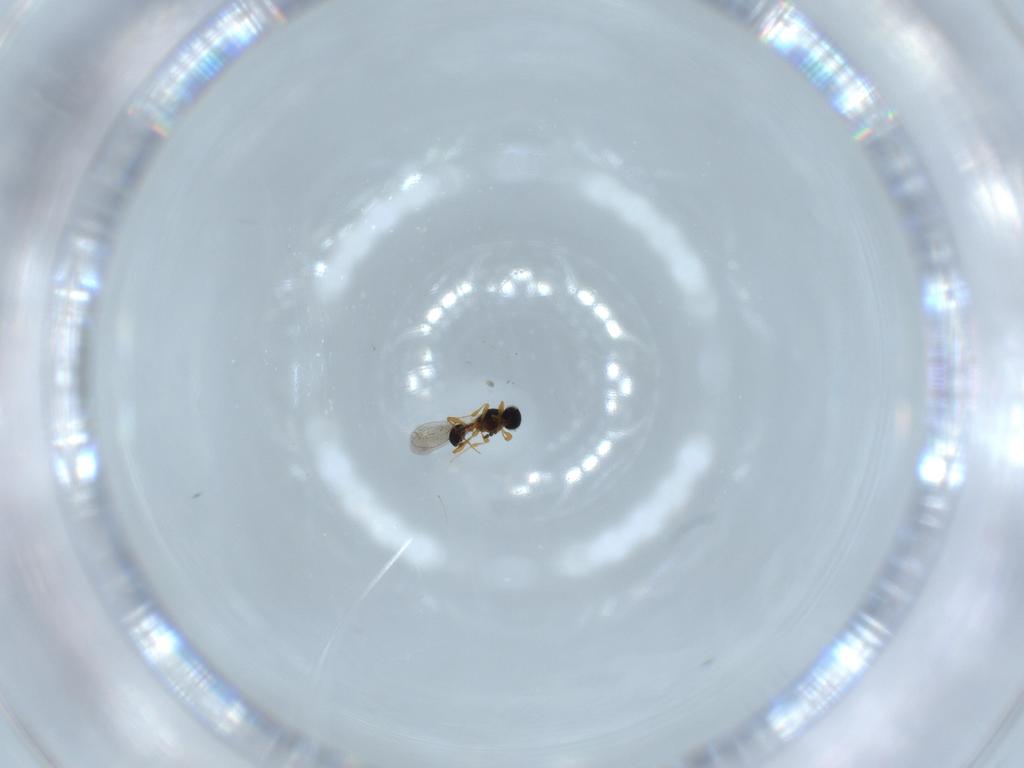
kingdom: Animalia
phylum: Arthropoda
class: Insecta
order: Hymenoptera
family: Platygastridae
